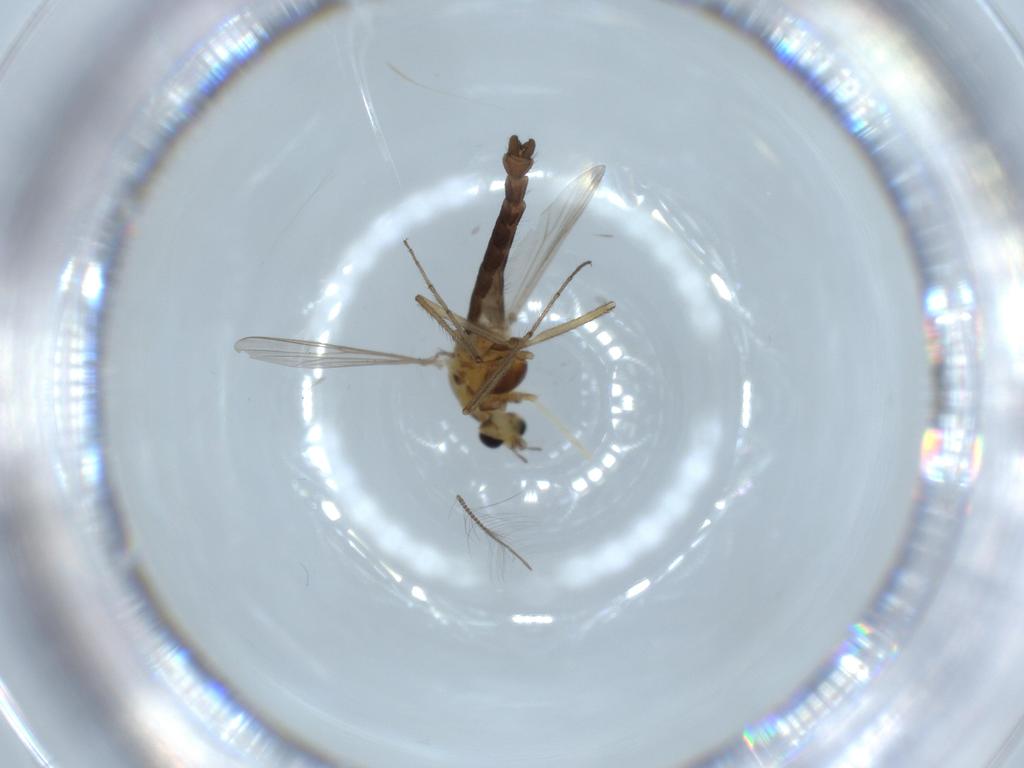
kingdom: Animalia
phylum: Arthropoda
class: Insecta
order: Diptera
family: Chironomidae
